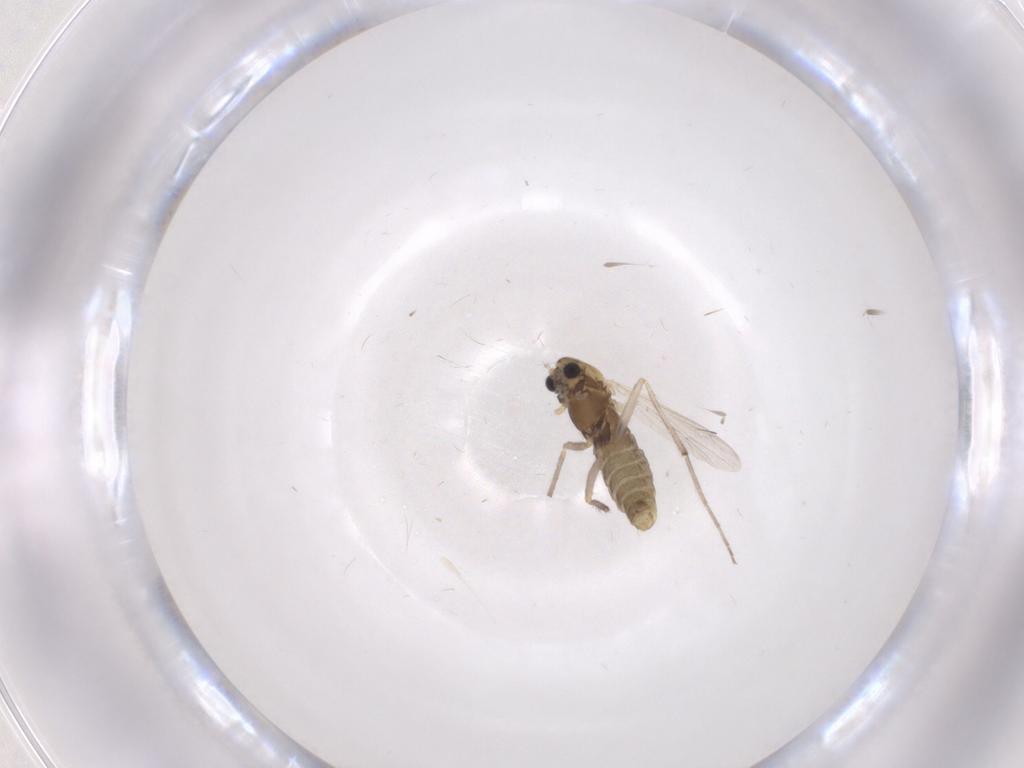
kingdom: Animalia
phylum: Arthropoda
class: Insecta
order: Diptera
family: Chironomidae
